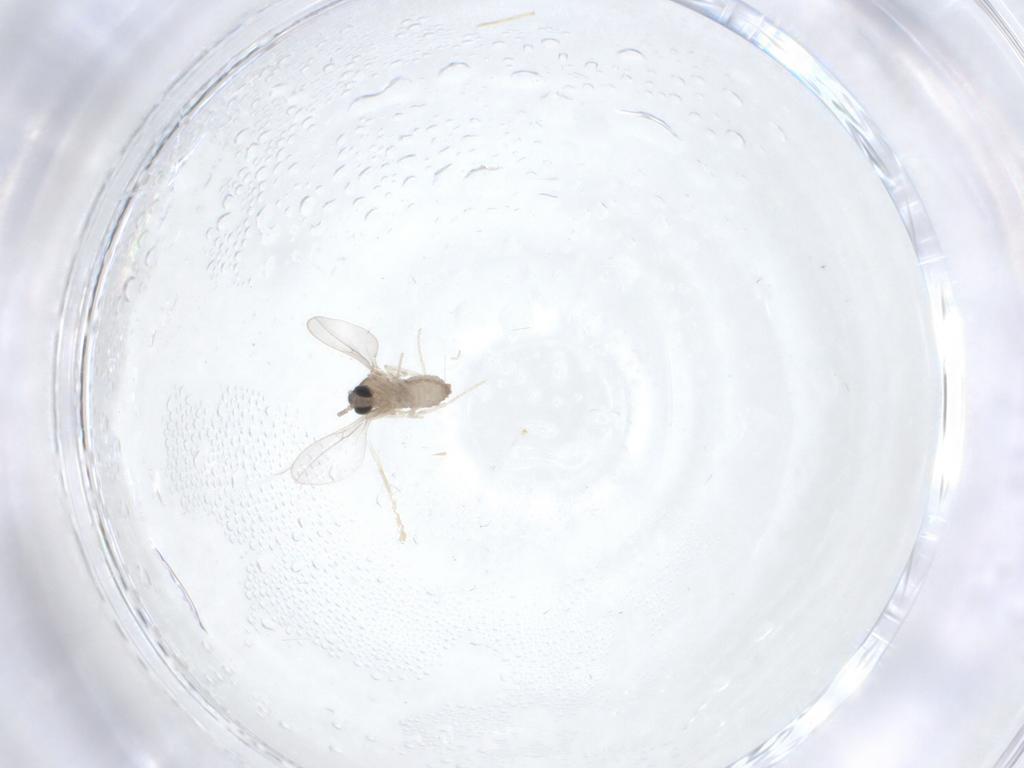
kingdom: Animalia
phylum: Arthropoda
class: Insecta
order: Diptera
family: Cecidomyiidae
